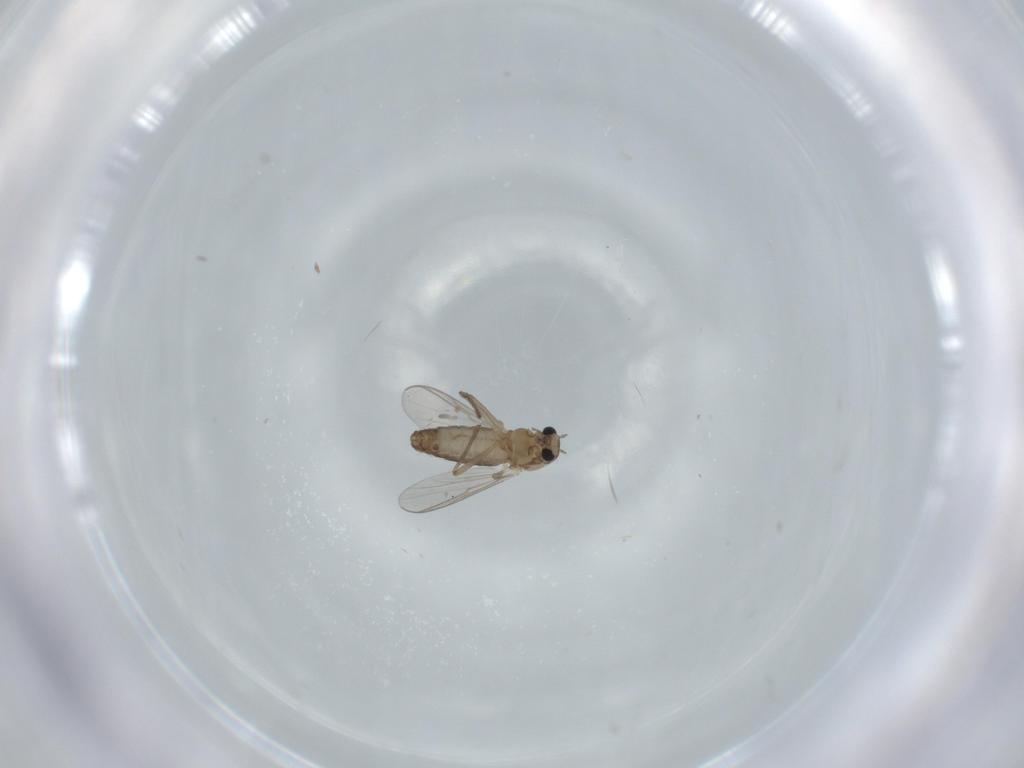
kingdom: Animalia
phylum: Arthropoda
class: Insecta
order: Diptera
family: Chironomidae
